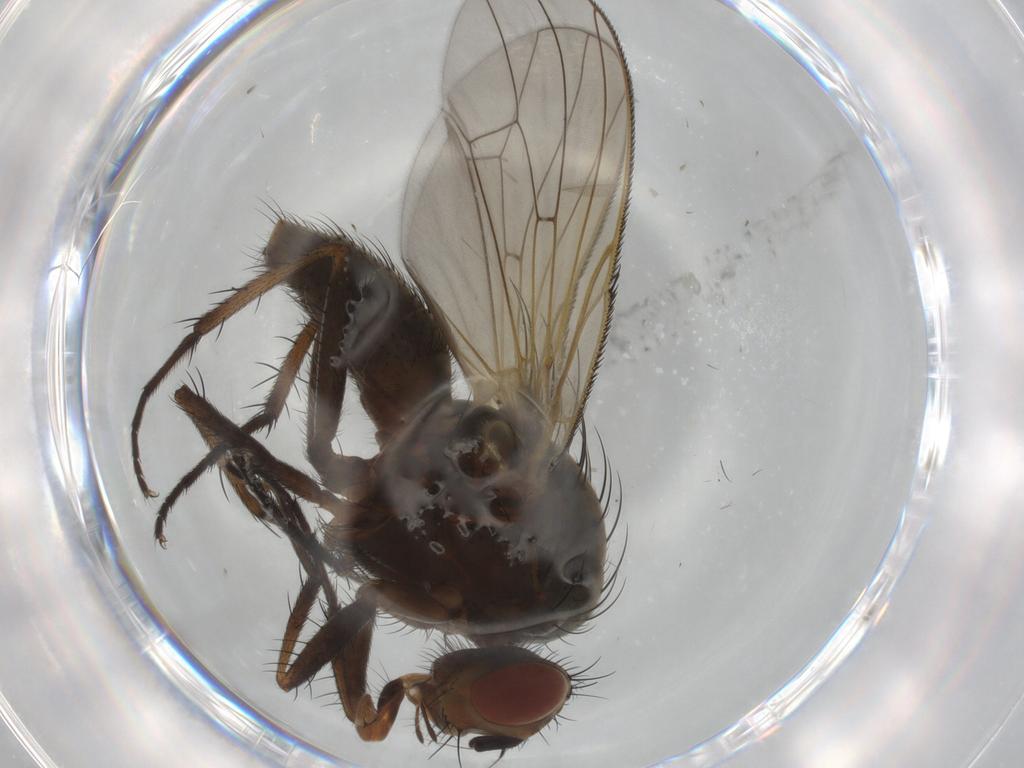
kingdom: Animalia
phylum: Arthropoda
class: Insecta
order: Diptera
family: Anthomyiidae
